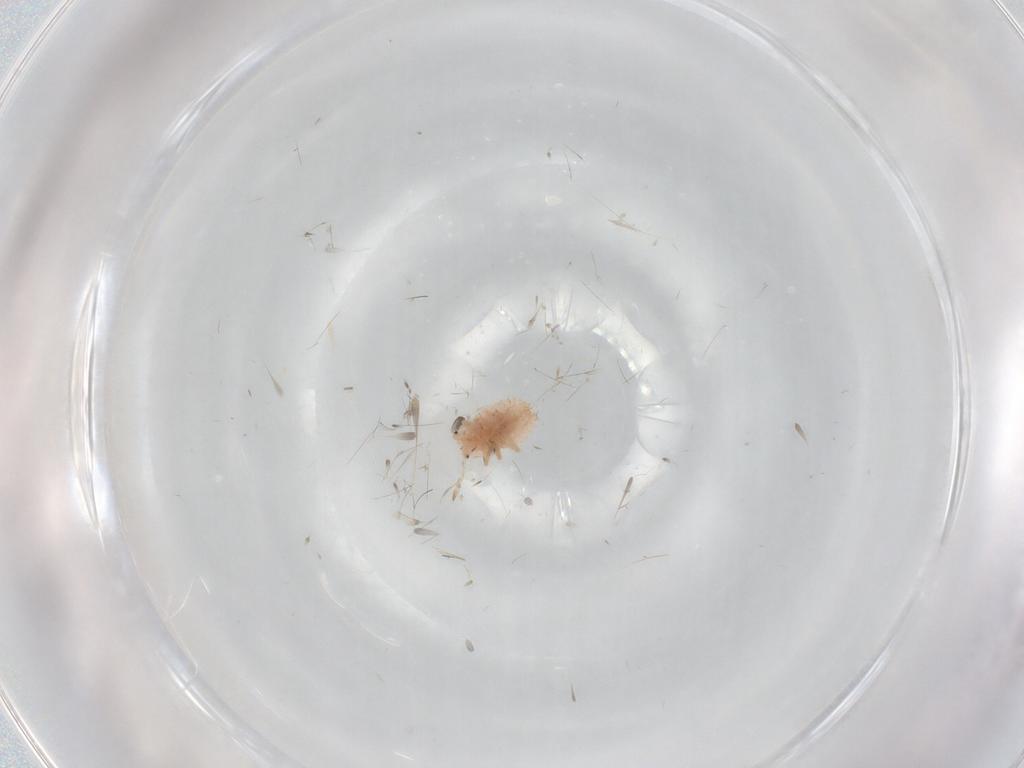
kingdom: Animalia
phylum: Arthropoda
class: Insecta
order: Hemiptera
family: Coccoidea_incertae_sedis
